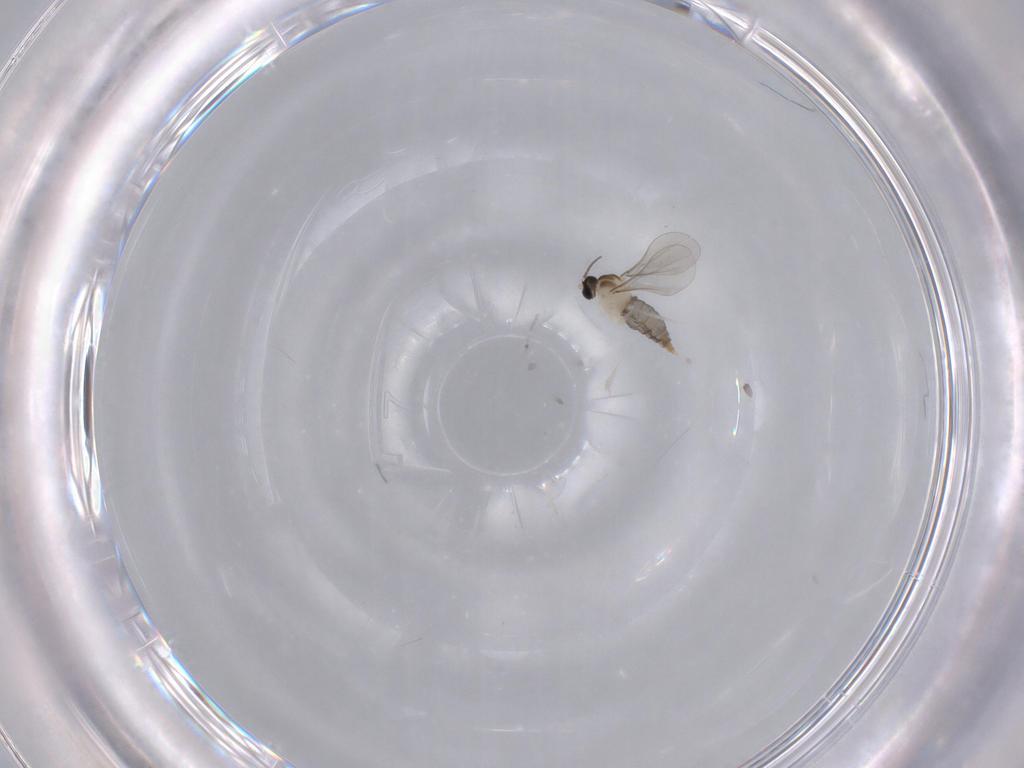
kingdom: Animalia
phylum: Arthropoda
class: Insecta
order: Diptera
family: Cecidomyiidae
